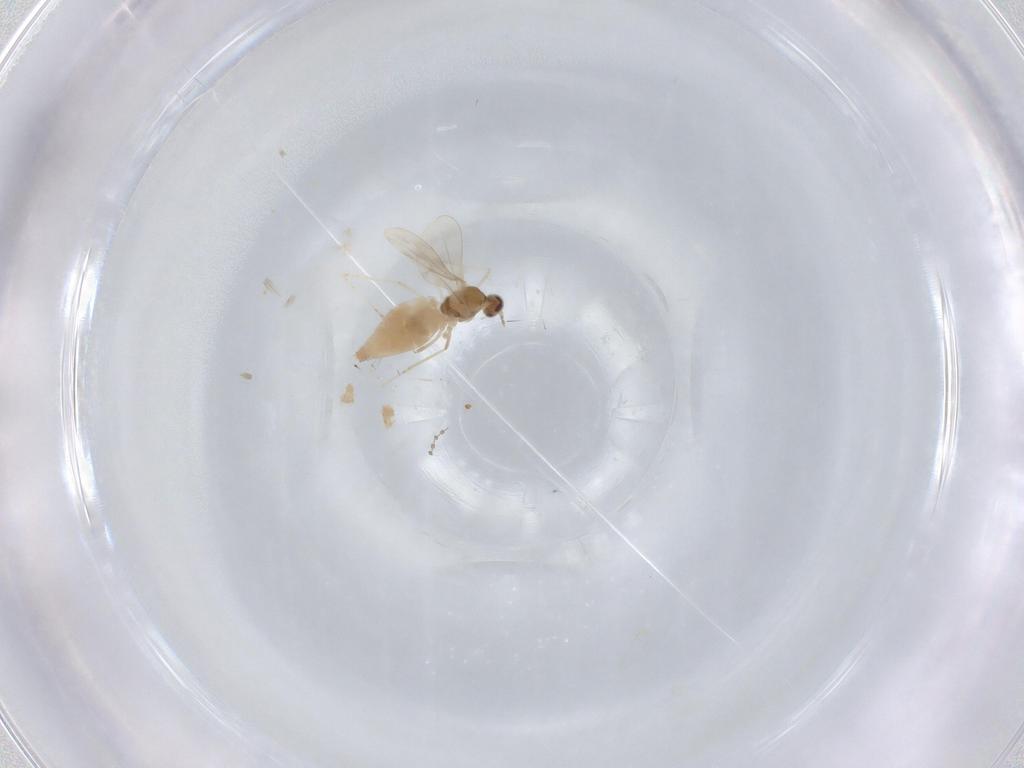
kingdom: Animalia
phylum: Arthropoda
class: Insecta
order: Diptera
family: Cecidomyiidae
